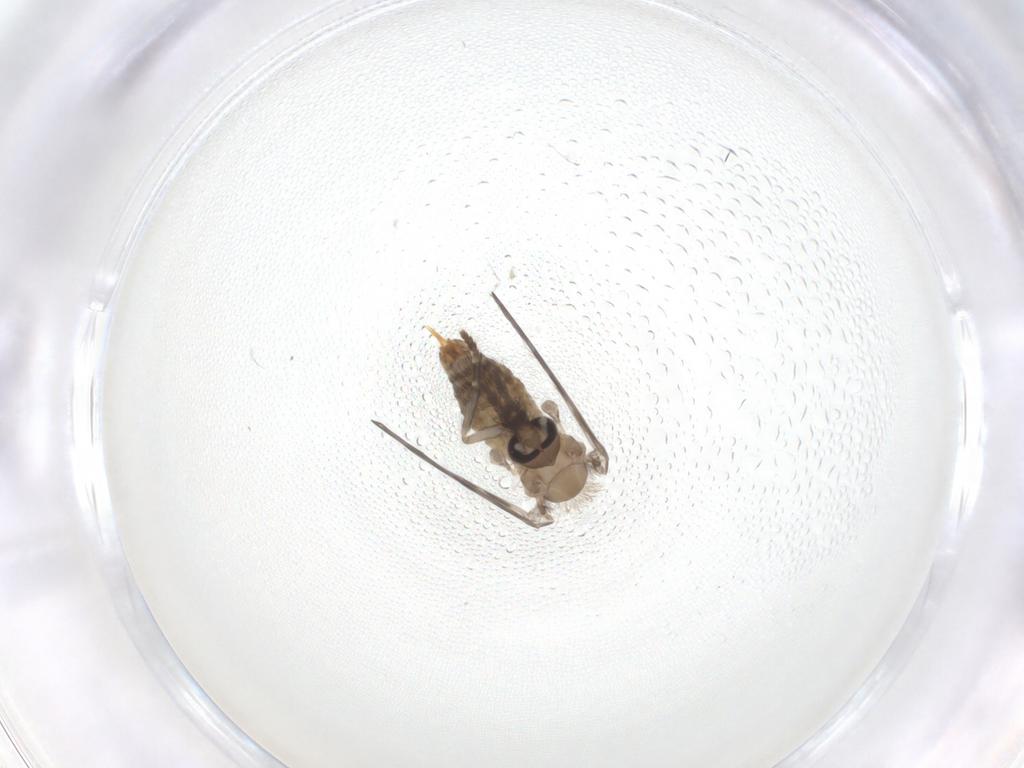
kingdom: Animalia
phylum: Arthropoda
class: Insecta
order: Diptera
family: Psychodidae
